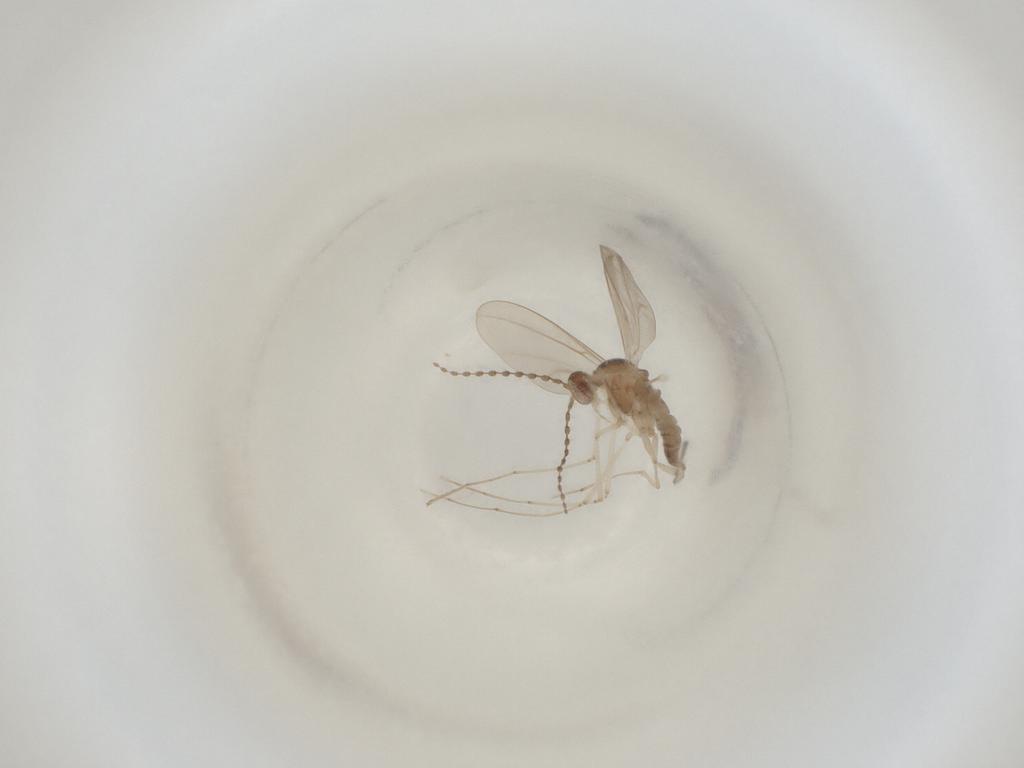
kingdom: Animalia
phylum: Arthropoda
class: Insecta
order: Diptera
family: Cecidomyiidae
